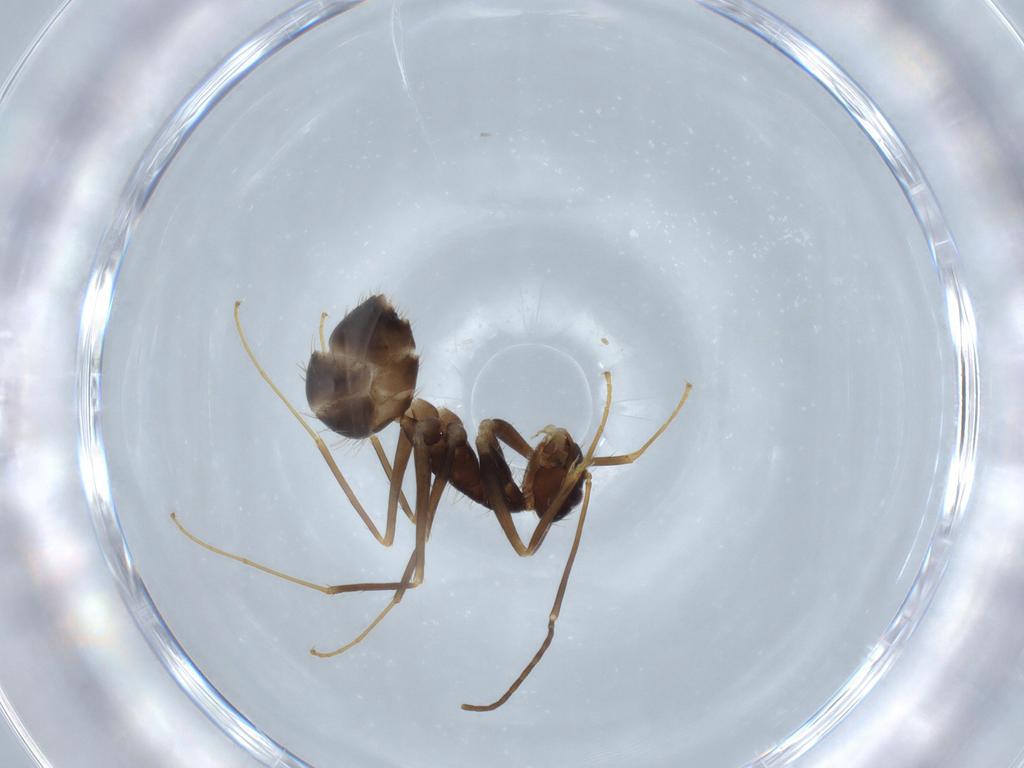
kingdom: Animalia
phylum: Arthropoda
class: Insecta
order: Hymenoptera
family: Formicidae
